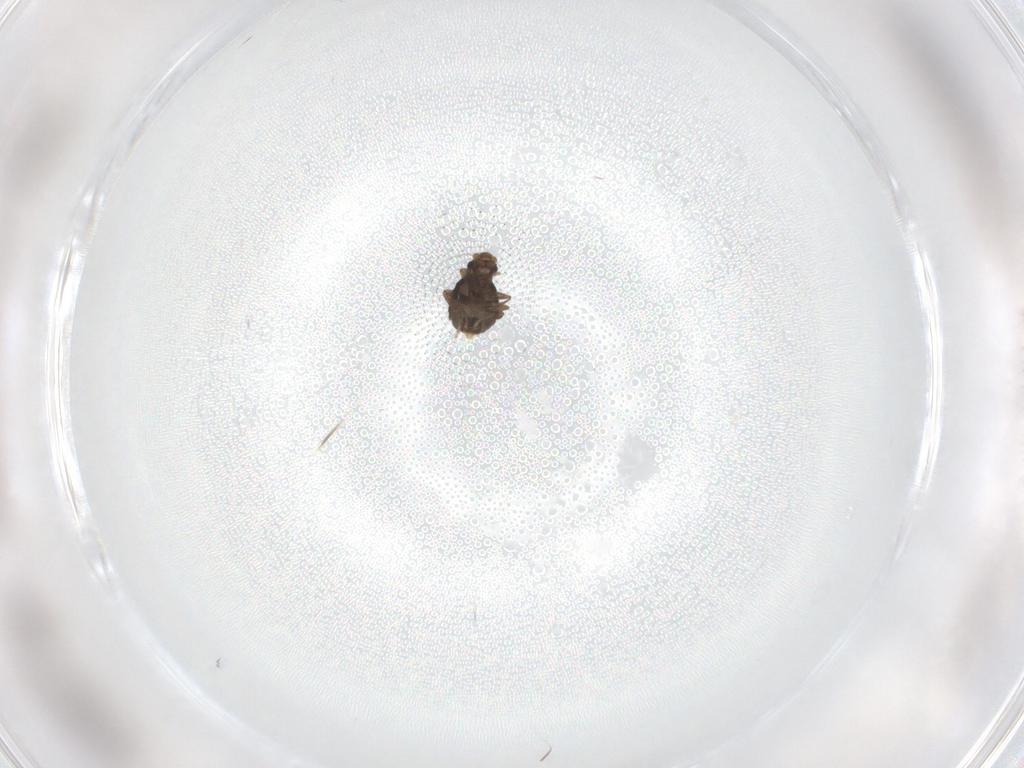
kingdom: Animalia
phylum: Arthropoda
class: Insecta
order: Diptera
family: Phoridae
